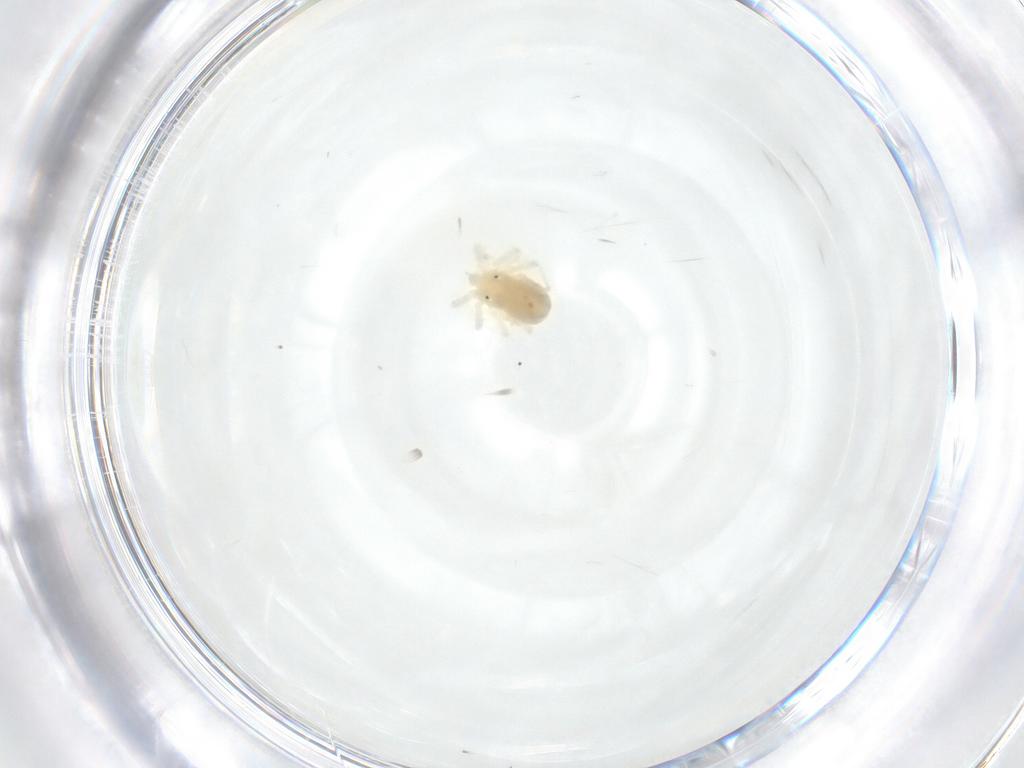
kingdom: Animalia
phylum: Arthropoda
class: Arachnida
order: Trombidiformes
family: Anystidae
